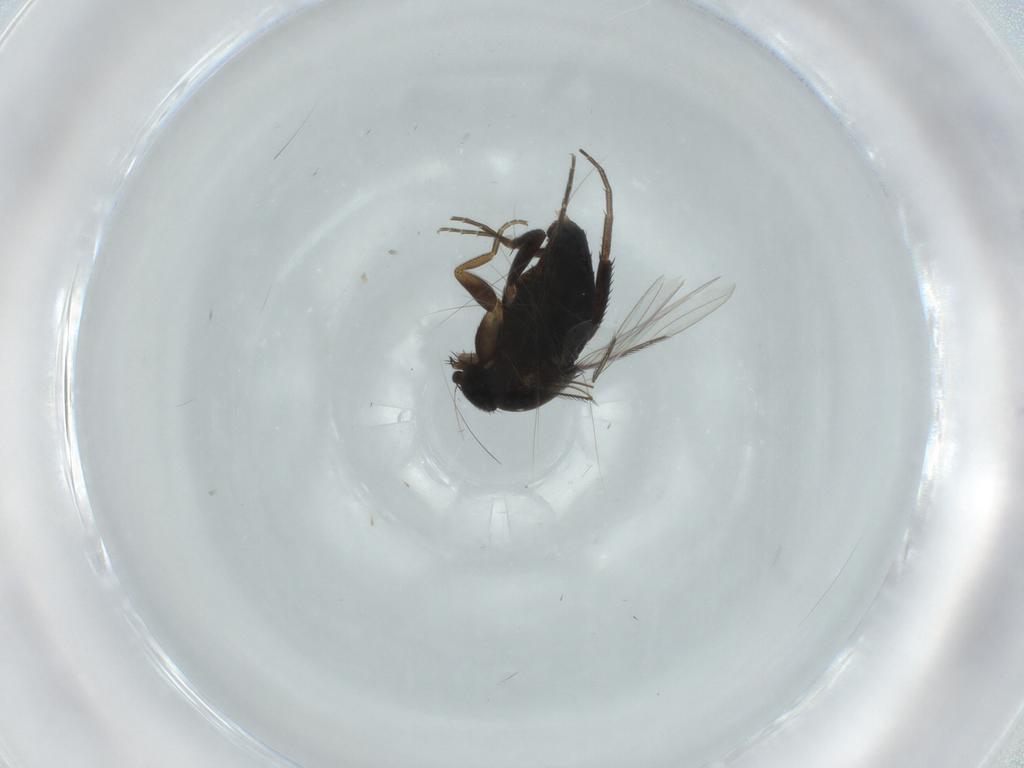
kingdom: Animalia
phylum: Arthropoda
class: Insecta
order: Diptera
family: Phoridae
